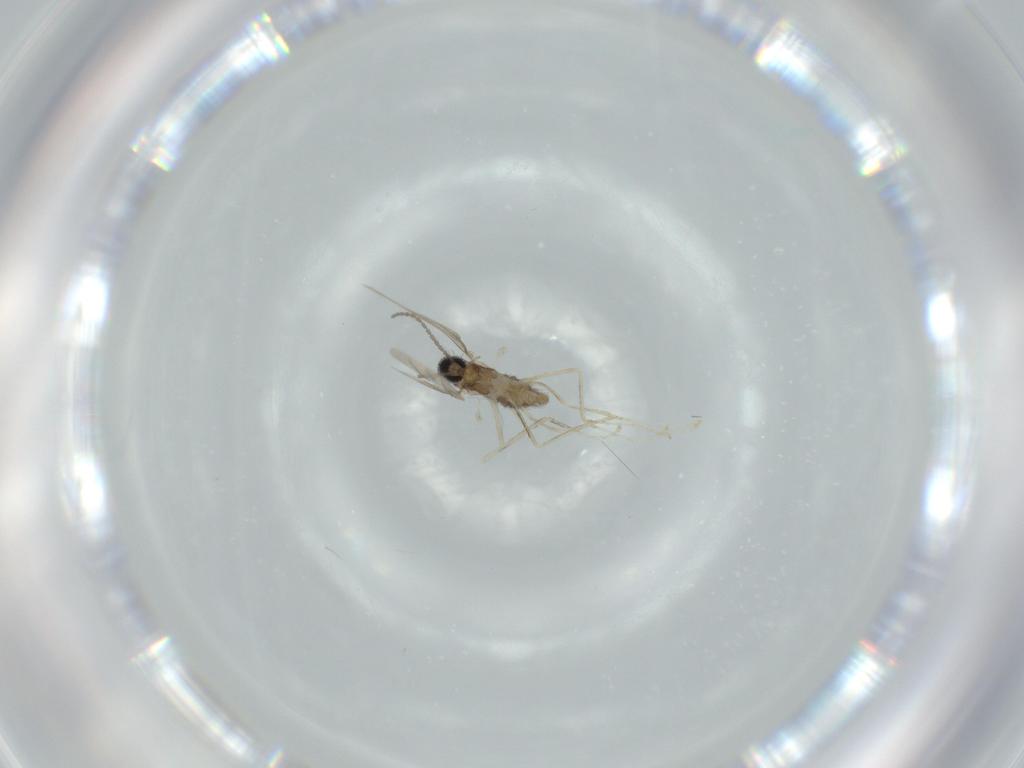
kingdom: Animalia
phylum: Arthropoda
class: Insecta
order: Diptera
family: Cecidomyiidae
